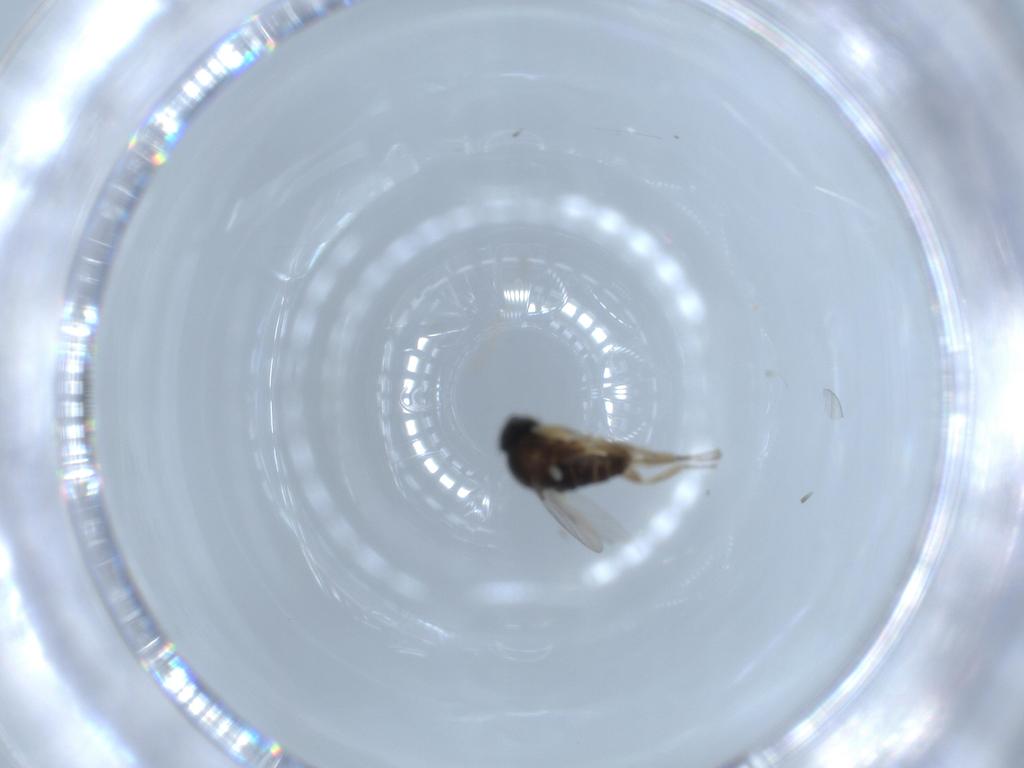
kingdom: Animalia
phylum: Arthropoda
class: Insecta
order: Diptera
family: Phoridae
